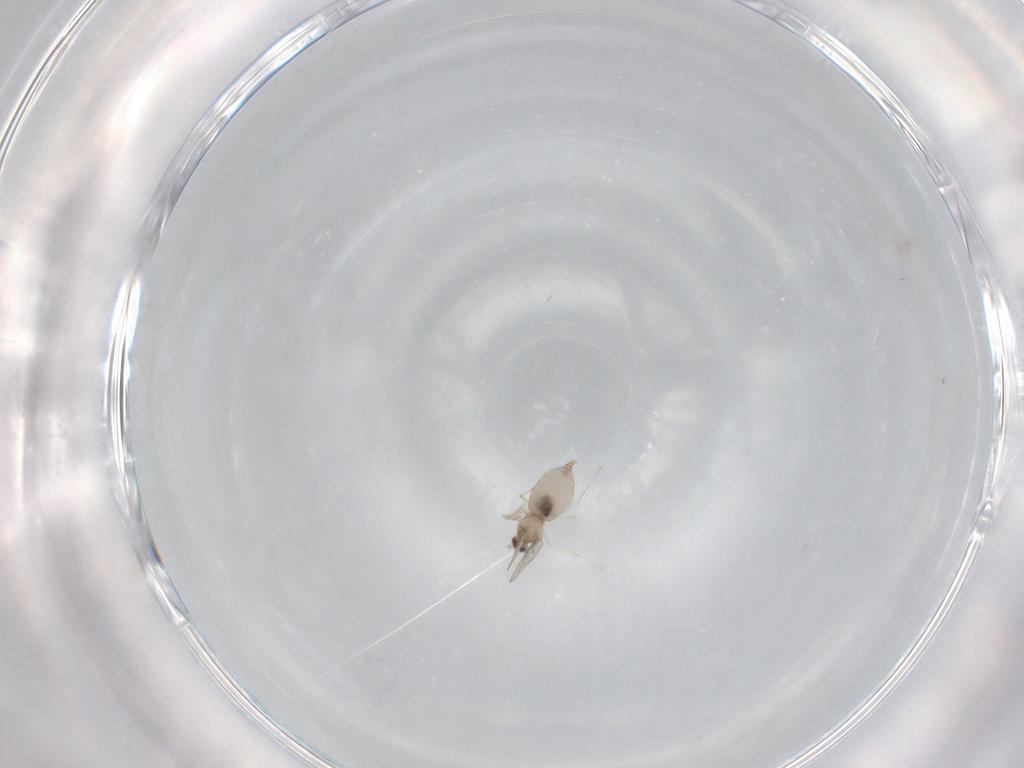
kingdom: Animalia
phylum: Arthropoda
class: Insecta
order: Diptera
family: Cecidomyiidae
